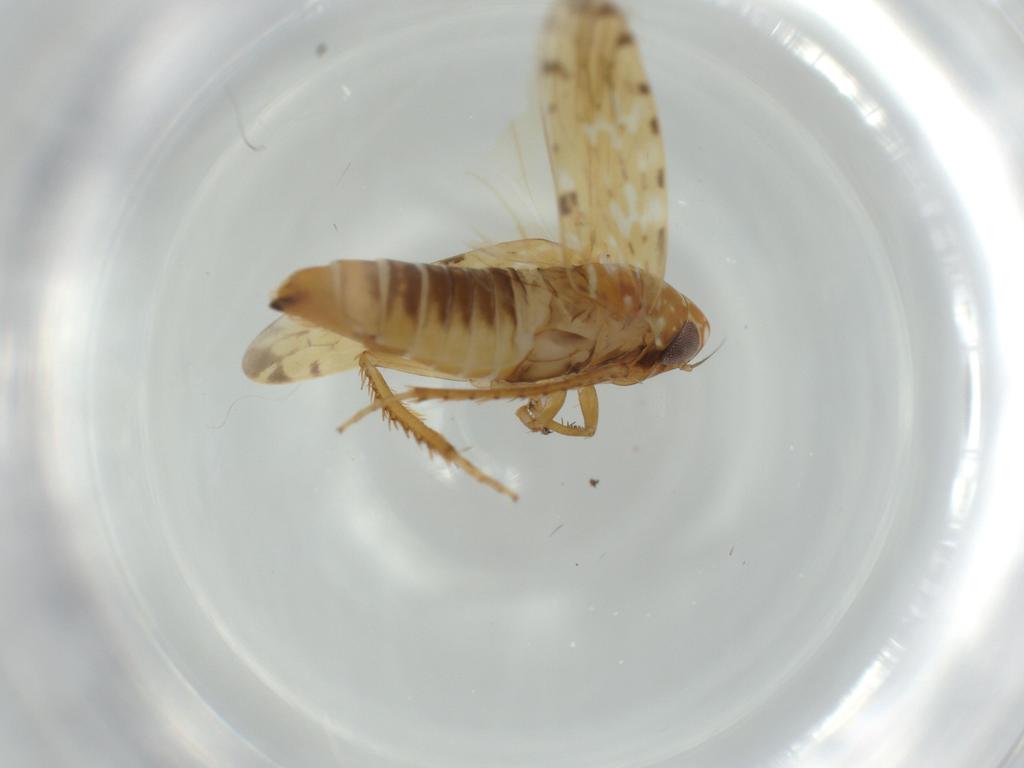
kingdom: Animalia
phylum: Arthropoda
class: Insecta
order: Hemiptera
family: Cicadellidae
